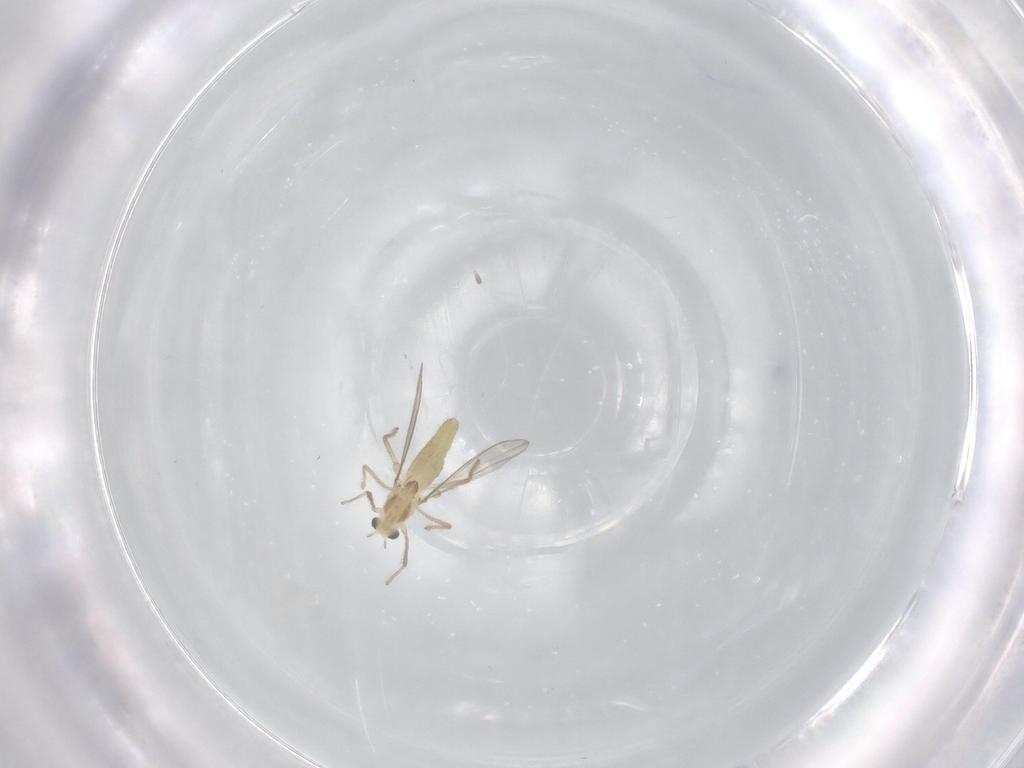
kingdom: Animalia
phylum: Arthropoda
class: Insecta
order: Diptera
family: Chironomidae
